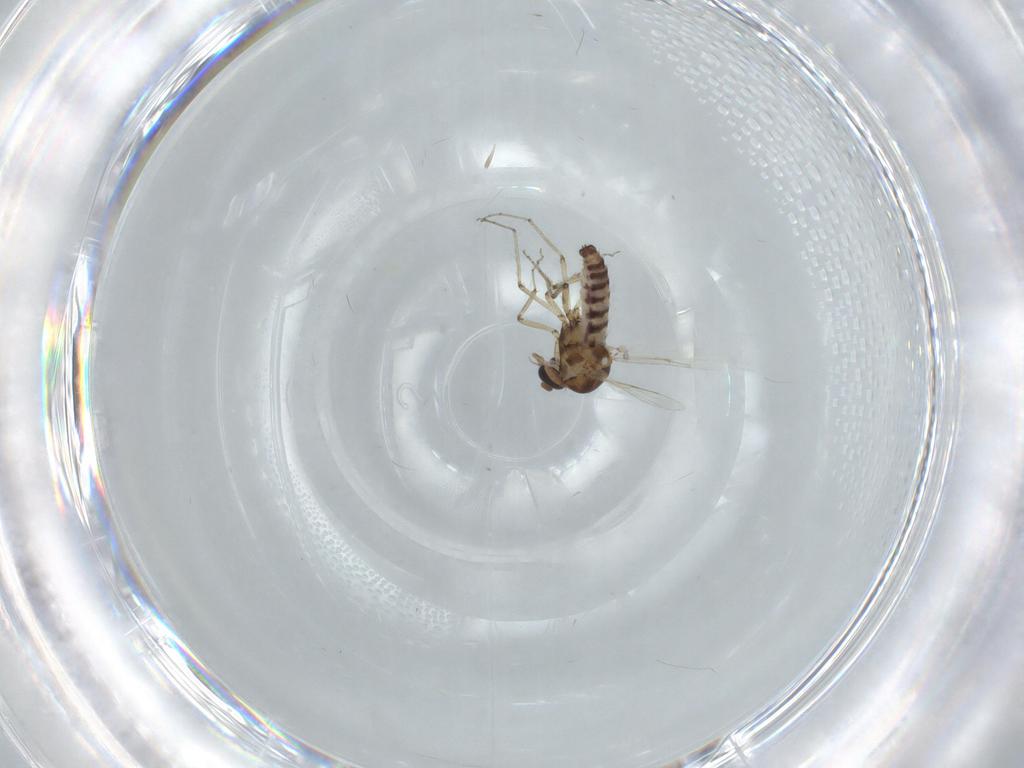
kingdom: Animalia
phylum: Arthropoda
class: Insecta
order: Diptera
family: Ceratopogonidae
